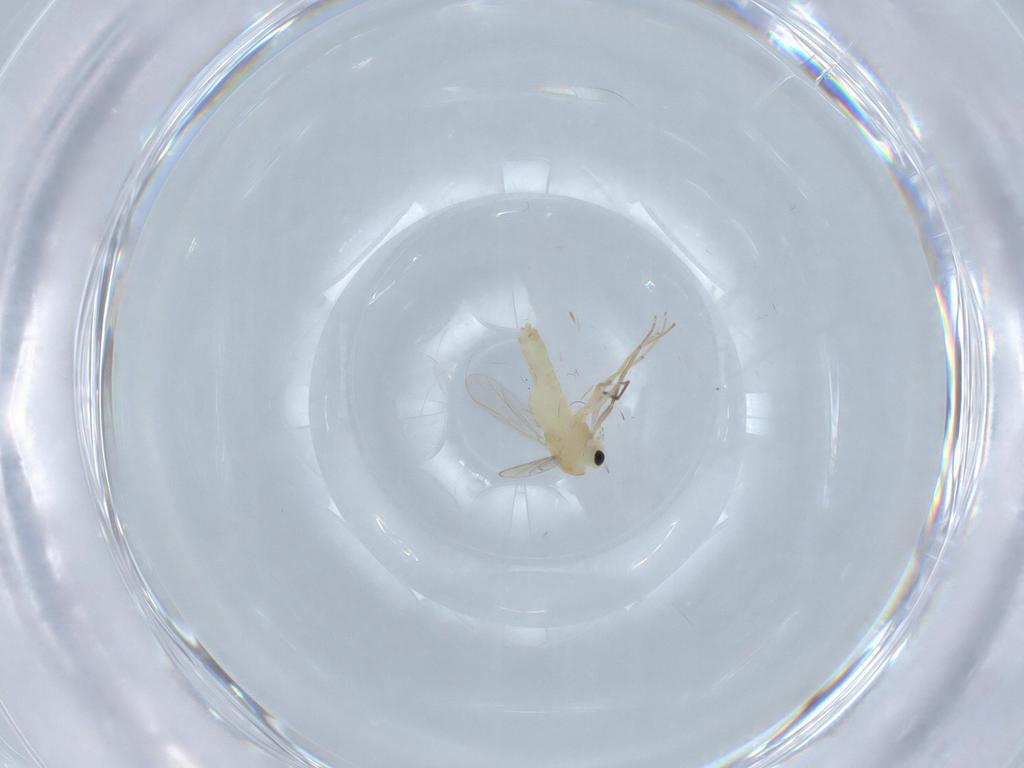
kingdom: Animalia
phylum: Arthropoda
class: Insecta
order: Diptera
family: Chironomidae
